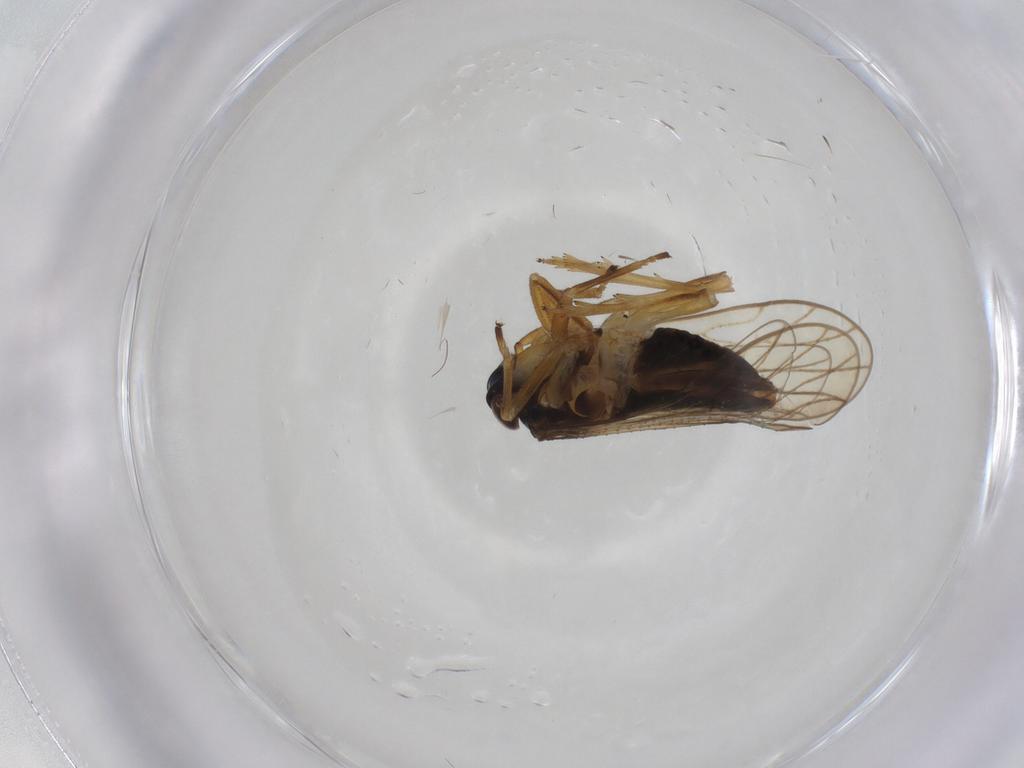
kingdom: Animalia
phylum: Arthropoda
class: Insecta
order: Hemiptera
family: Delphacidae
